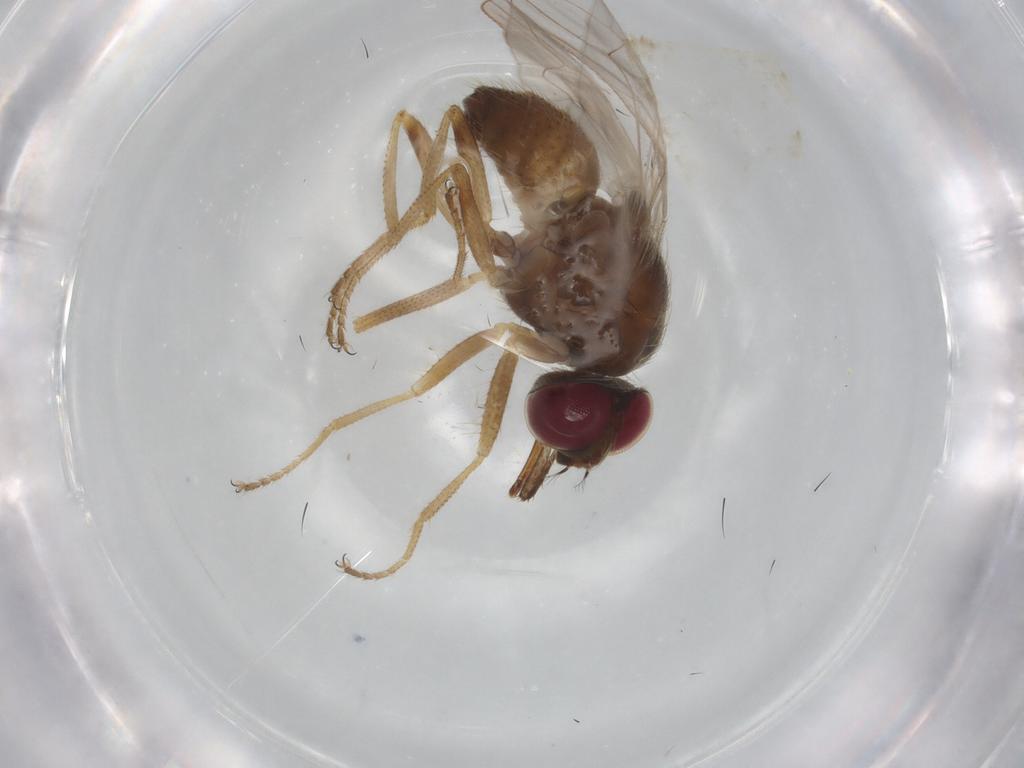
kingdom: Animalia
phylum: Arthropoda
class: Insecta
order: Diptera
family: Muscidae
